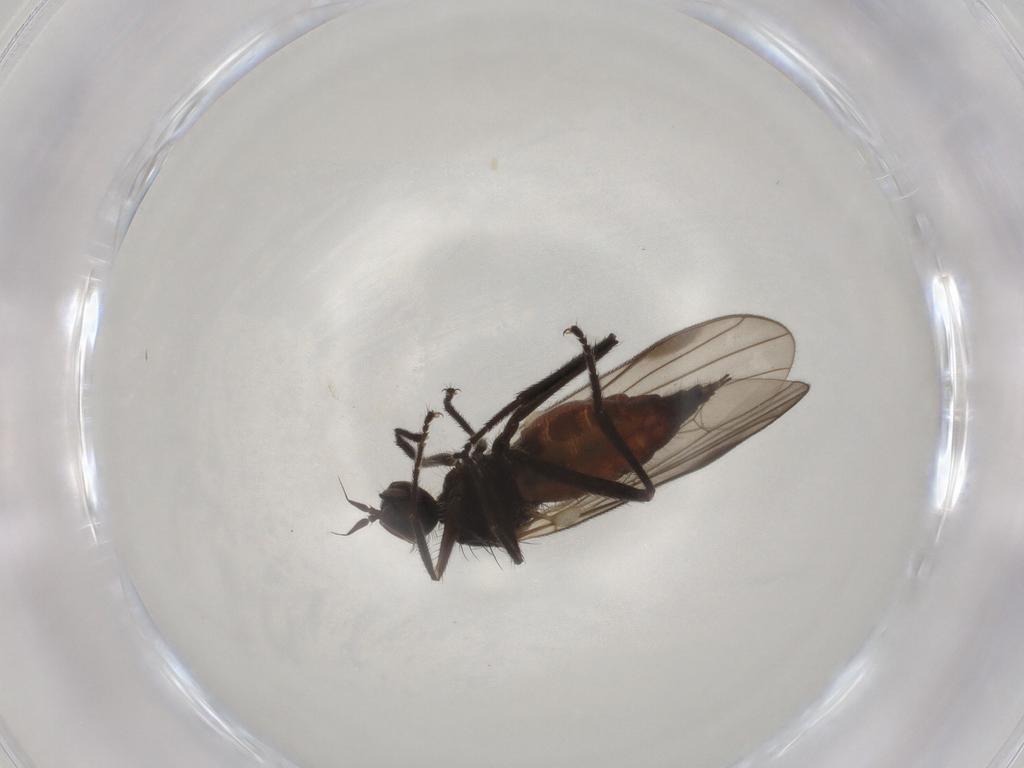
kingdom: Animalia
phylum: Arthropoda
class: Insecta
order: Diptera
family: Hybotidae
